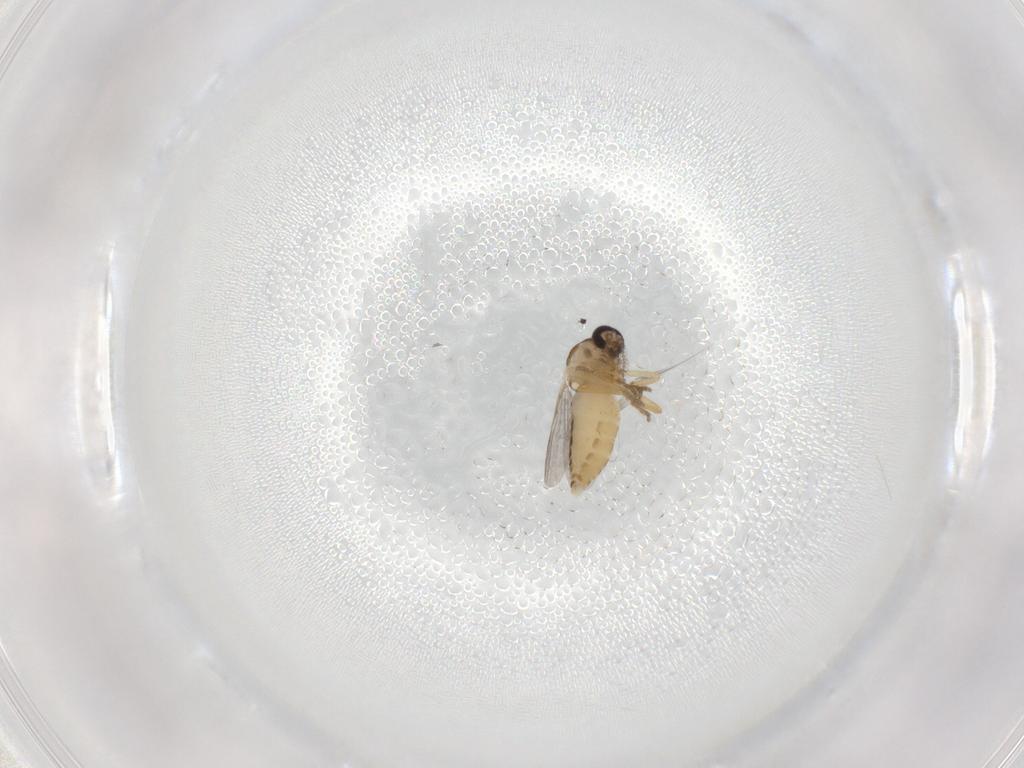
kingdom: Animalia
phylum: Arthropoda
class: Insecta
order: Diptera
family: Ceratopogonidae
